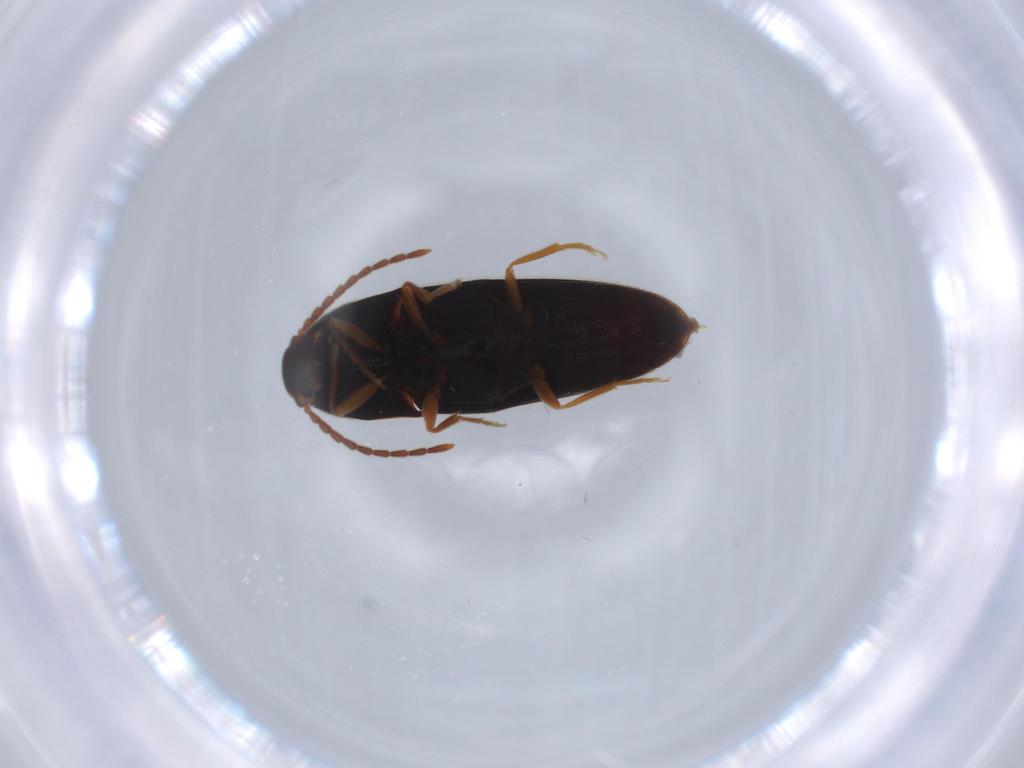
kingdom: Animalia
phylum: Arthropoda
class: Insecta
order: Coleoptera
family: Elateridae
